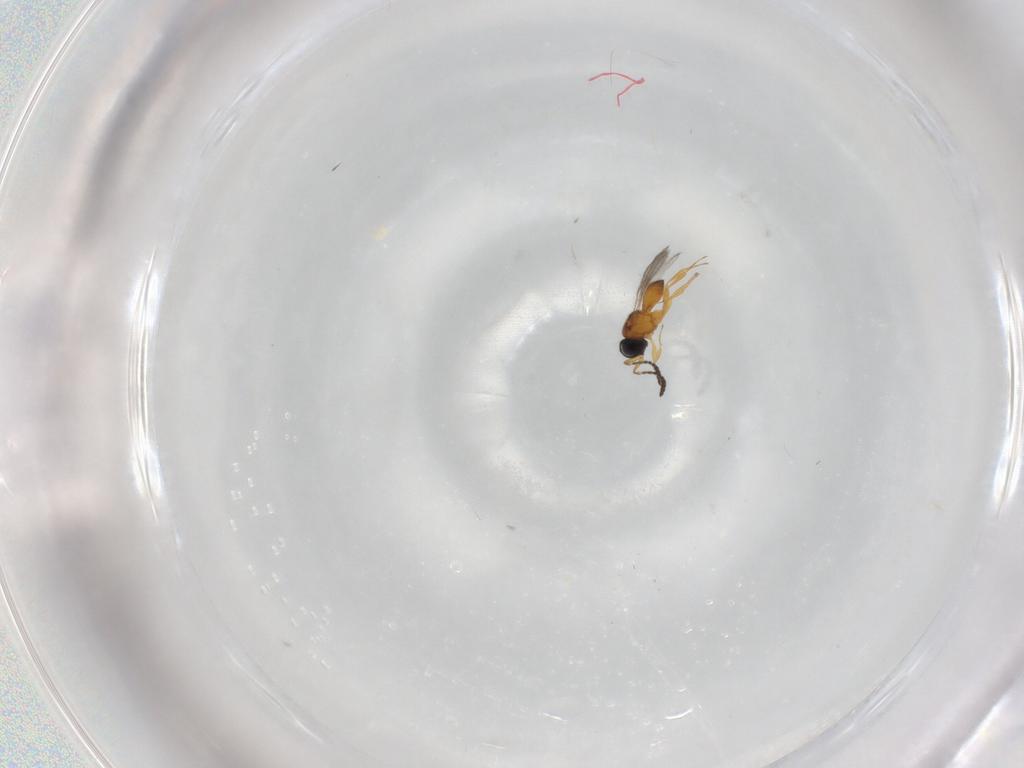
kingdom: Animalia
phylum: Arthropoda
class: Insecta
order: Hymenoptera
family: Scelionidae
